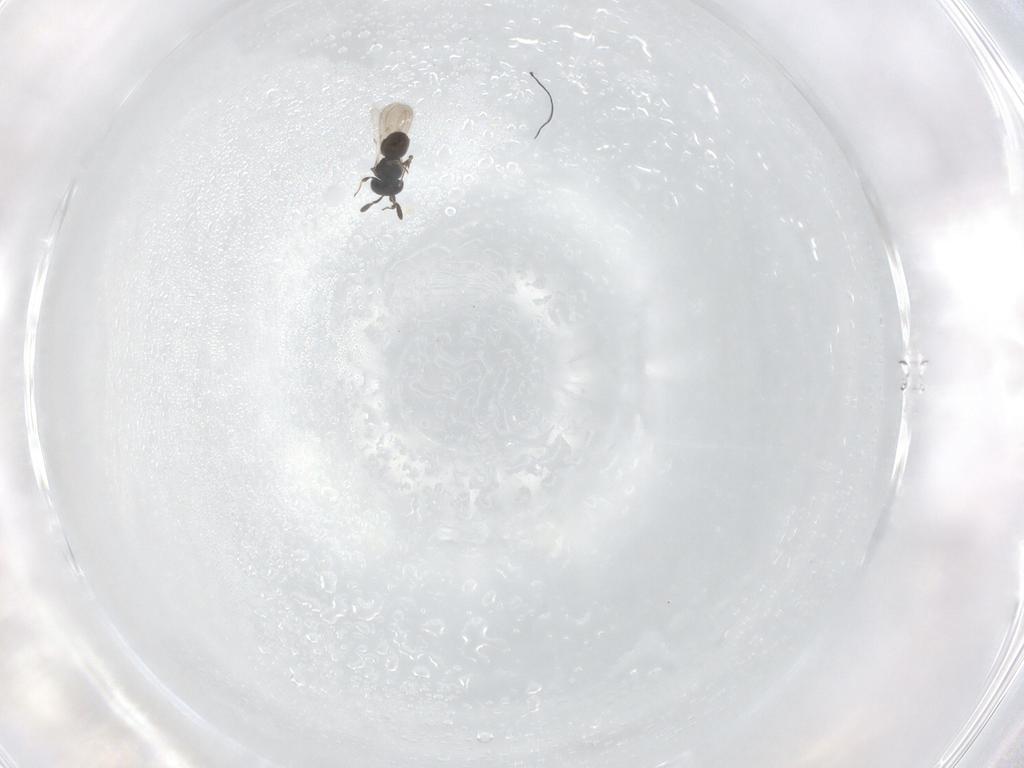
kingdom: Animalia
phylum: Arthropoda
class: Insecta
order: Hymenoptera
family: Scelionidae
